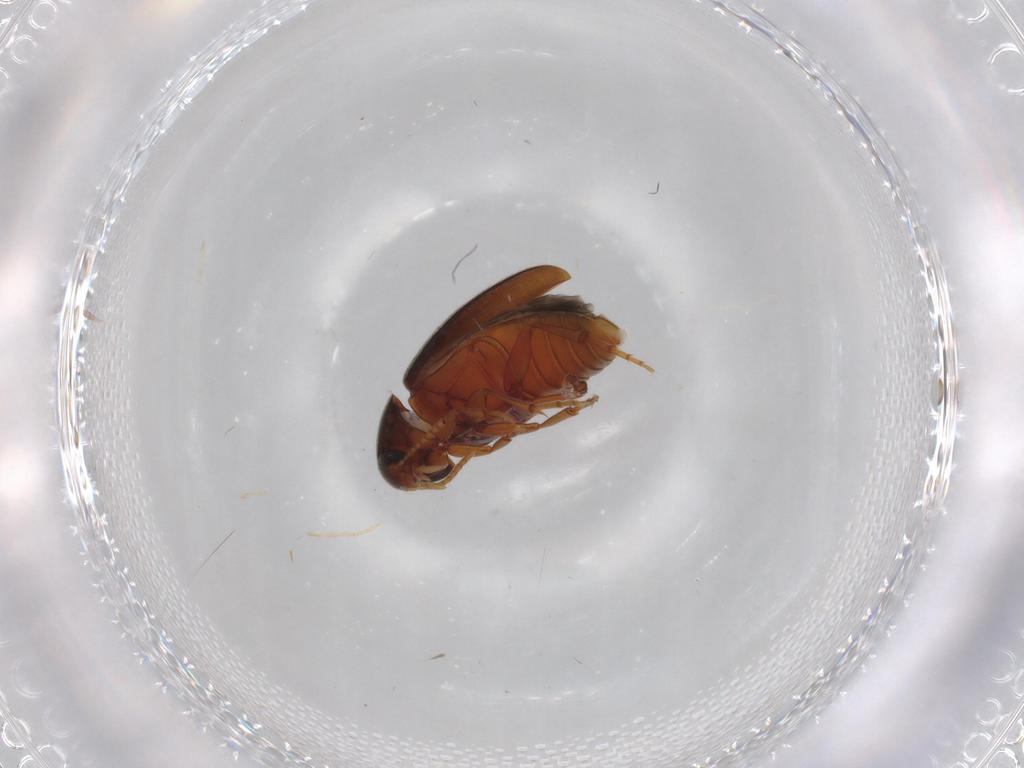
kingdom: Animalia
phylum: Arthropoda
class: Insecta
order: Coleoptera
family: Scraptiidae
